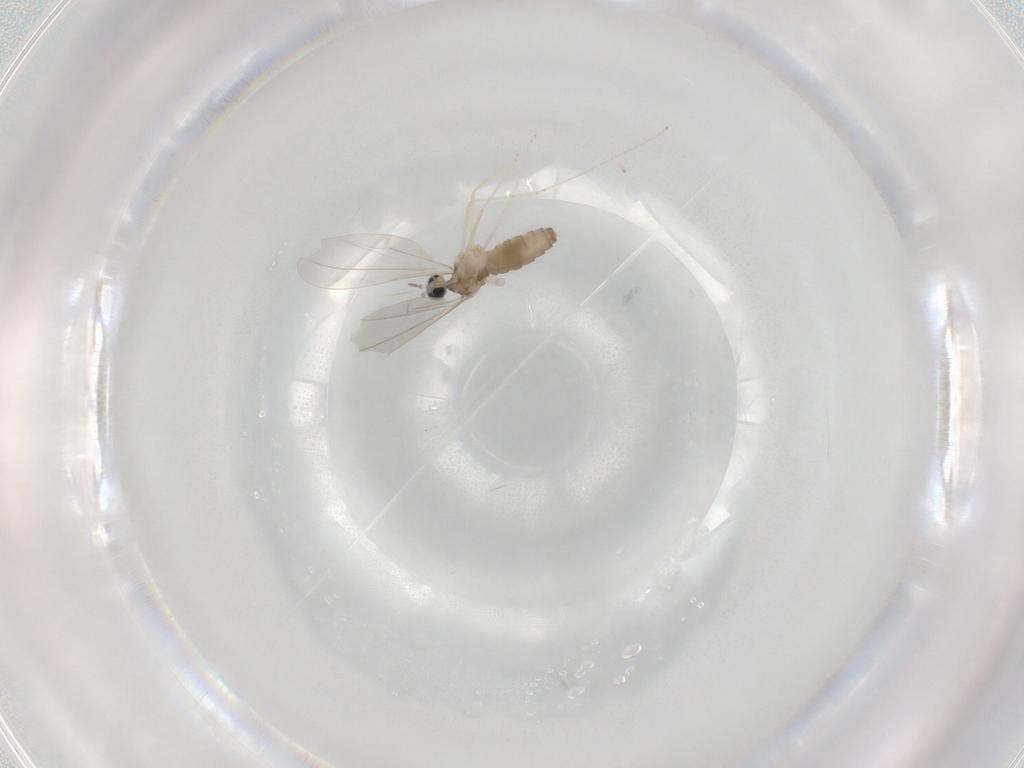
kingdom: Animalia
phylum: Arthropoda
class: Insecta
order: Diptera
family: Cecidomyiidae
